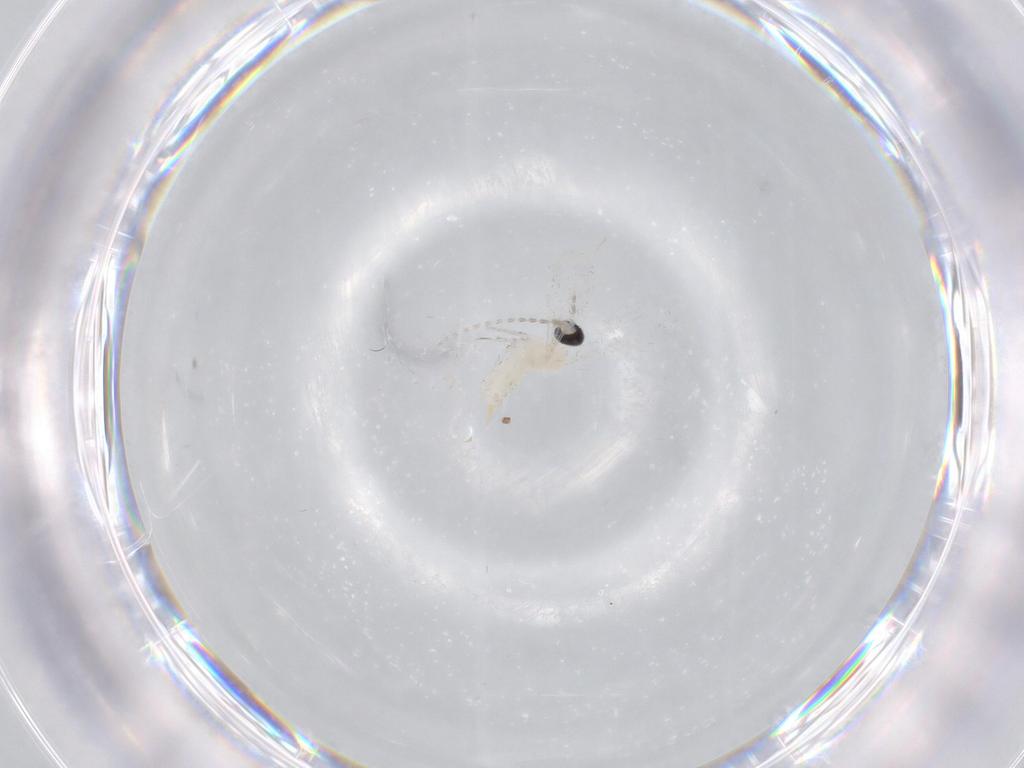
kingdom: Animalia
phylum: Arthropoda
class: Insecta
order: Diptera
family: Cecidomyiidae
